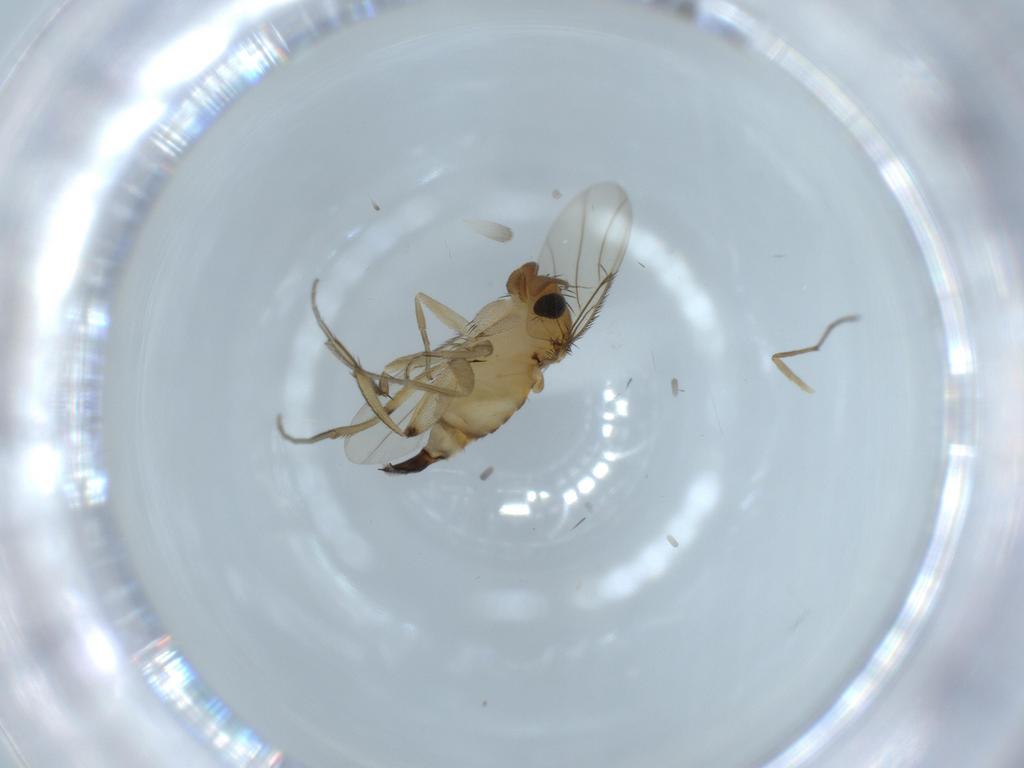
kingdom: Animalia
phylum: Arthropoda
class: Insecta
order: Diptera
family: Phoridae
